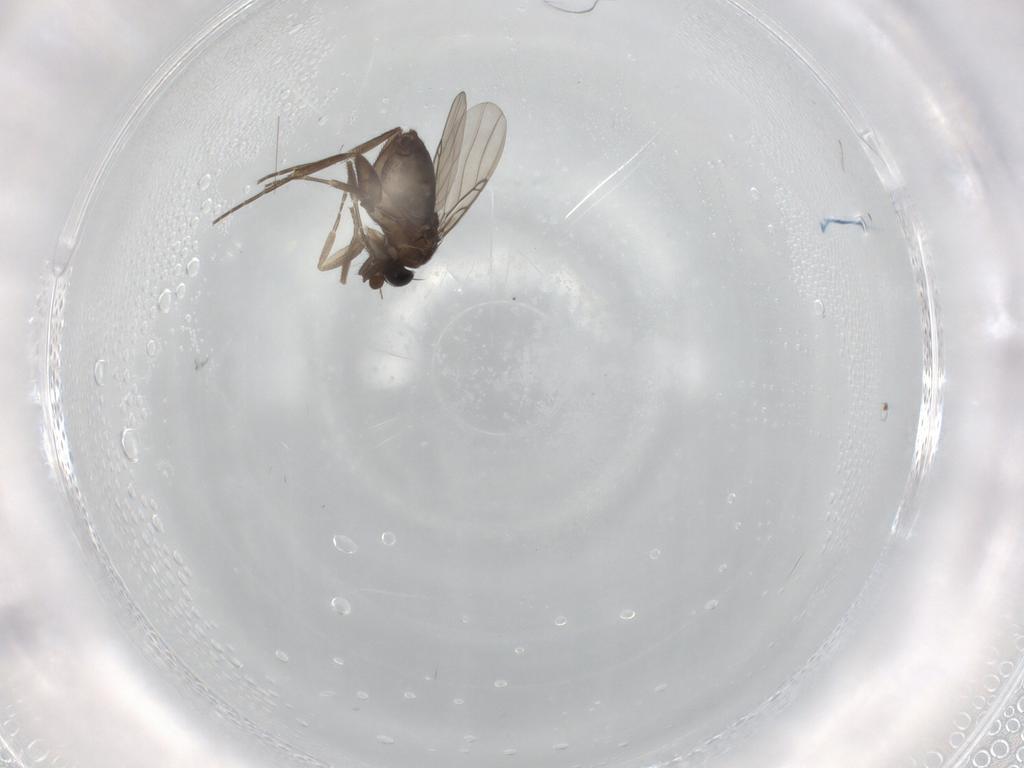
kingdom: Animalia
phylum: Arthropoda
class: Insecta
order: Diptera
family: Phoridae
